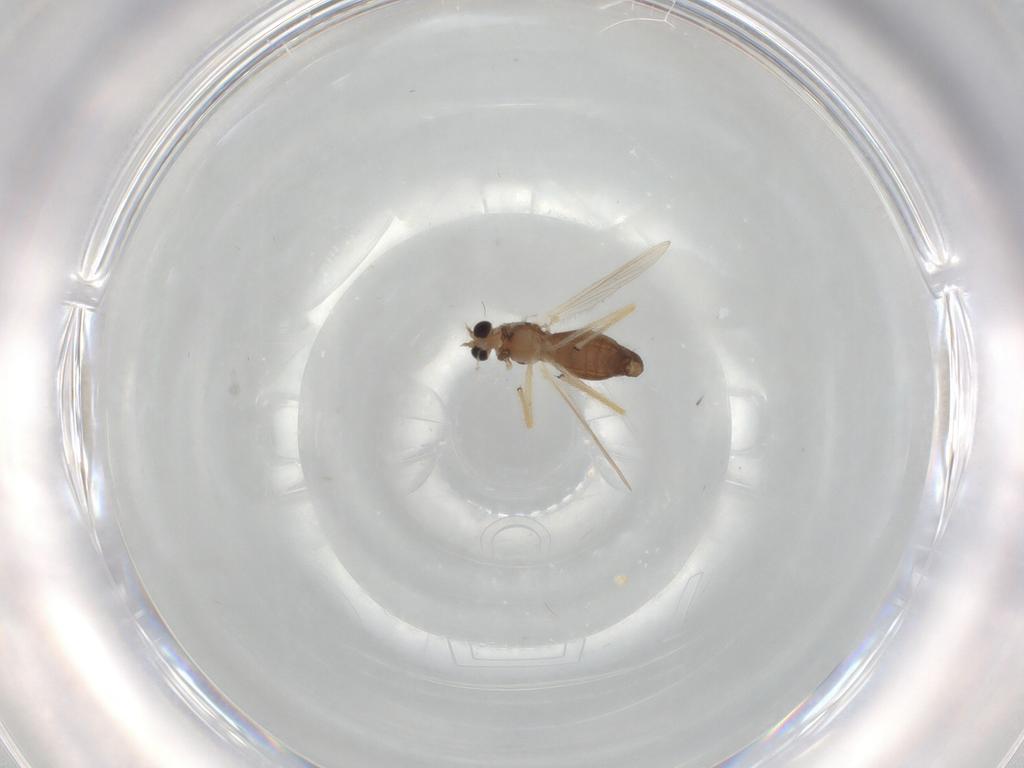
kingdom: Animalia
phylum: Arthropoda
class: Insecta
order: Diptera
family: Chironomidae
